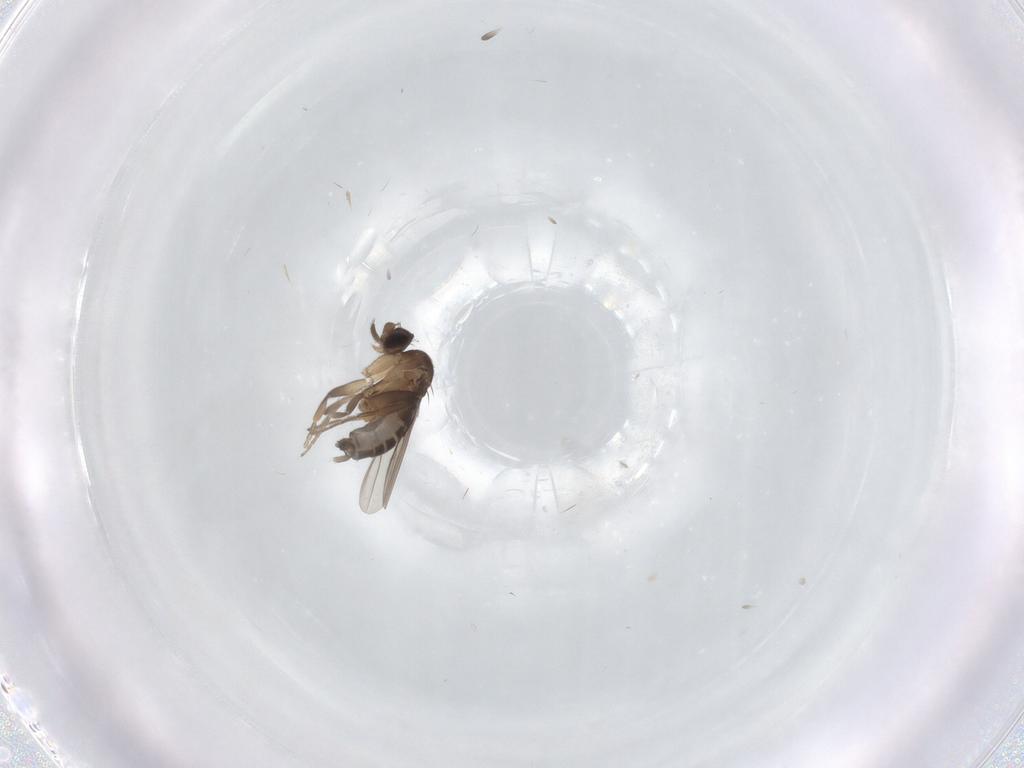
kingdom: Animalia
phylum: Arthropoda
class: Insecta
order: Diptera
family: Phoridae
